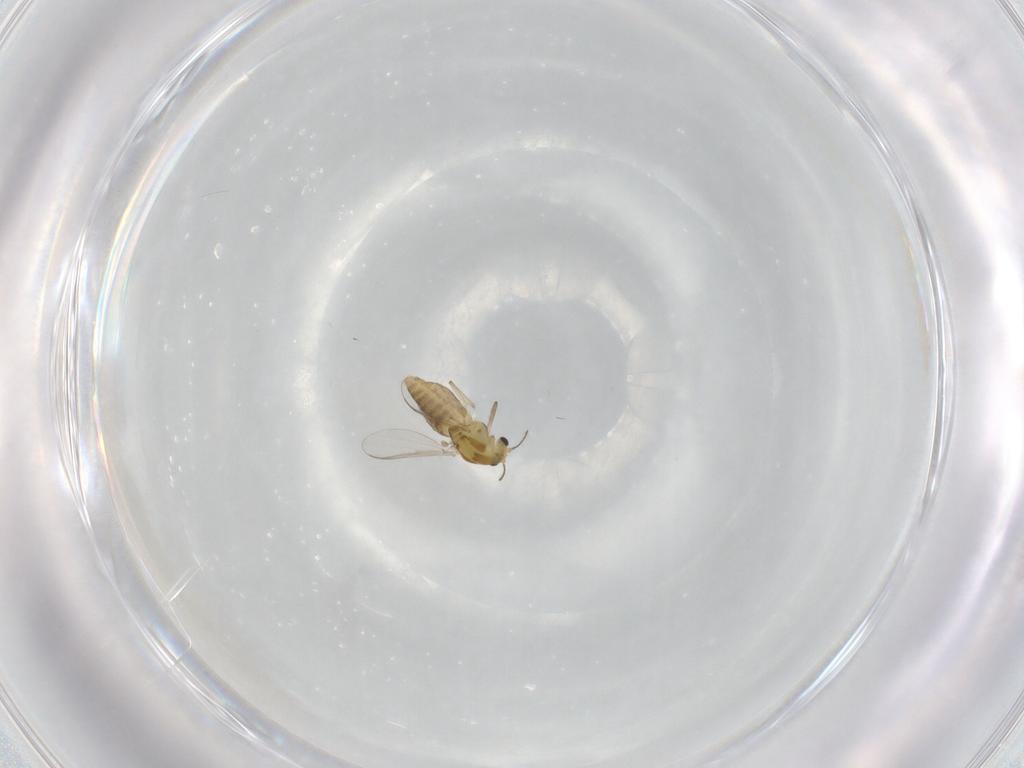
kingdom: Animalia
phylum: Arthropoda
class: Insecta
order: Diptera
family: Chironomidae
